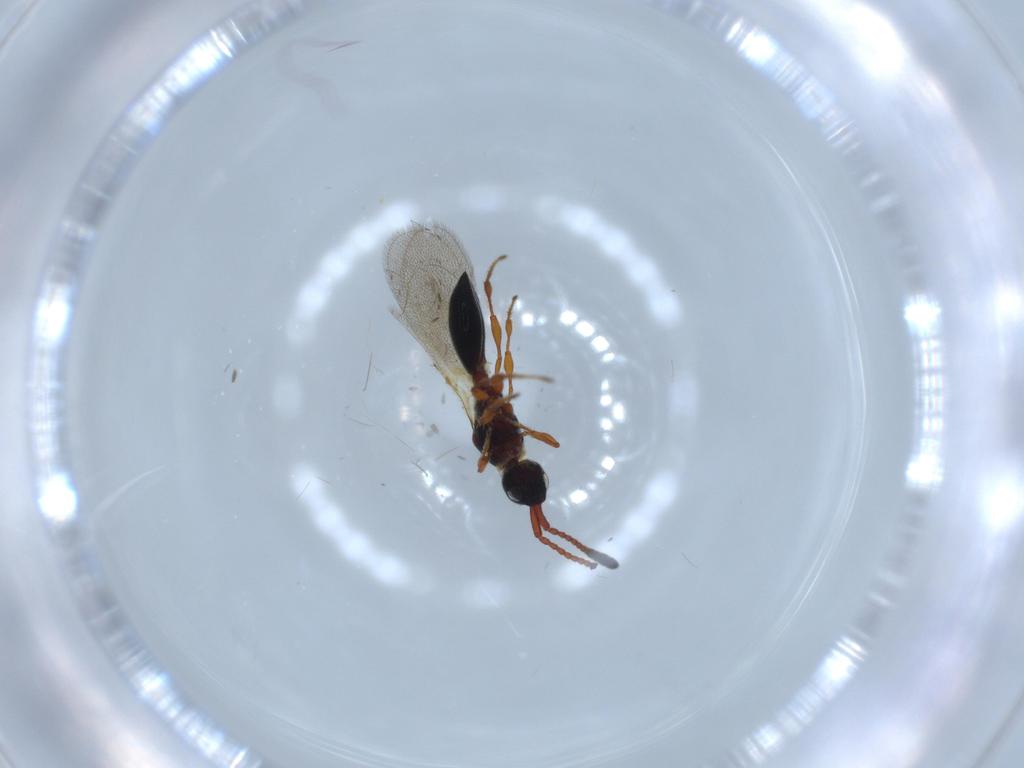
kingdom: Animalia
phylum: Arthropoda
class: Insecta
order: Hymenoptera
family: Diapriidae
